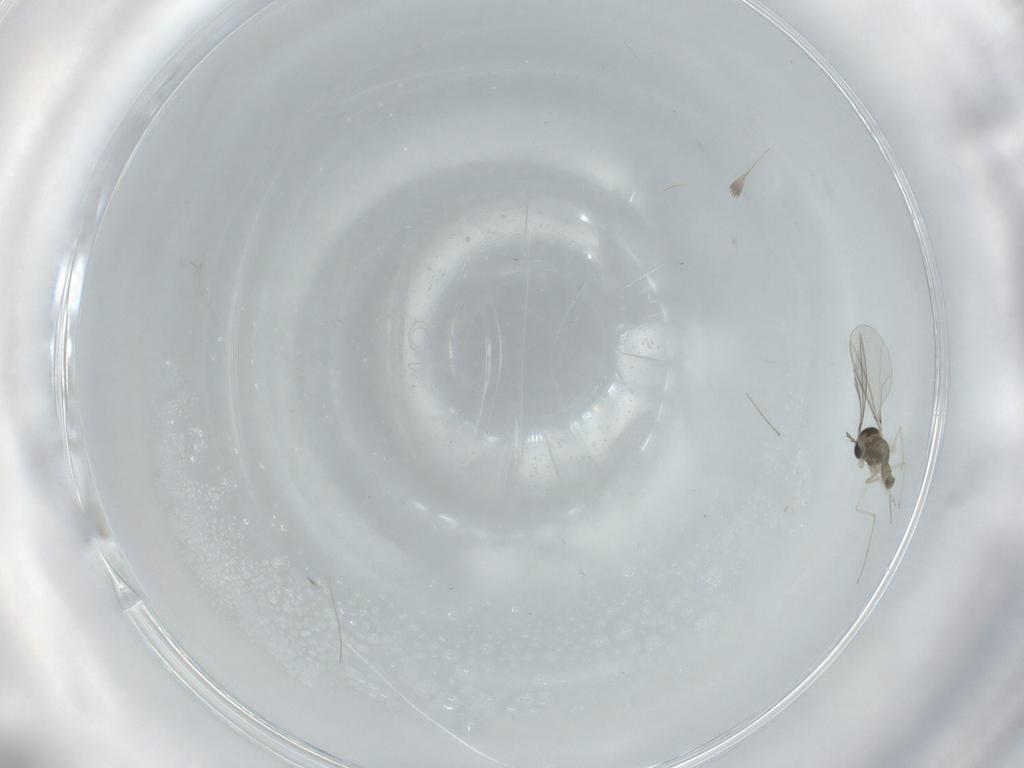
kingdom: Animalia
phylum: Arthropoda
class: Insecta
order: Diptera
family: Cecidomyiidae
